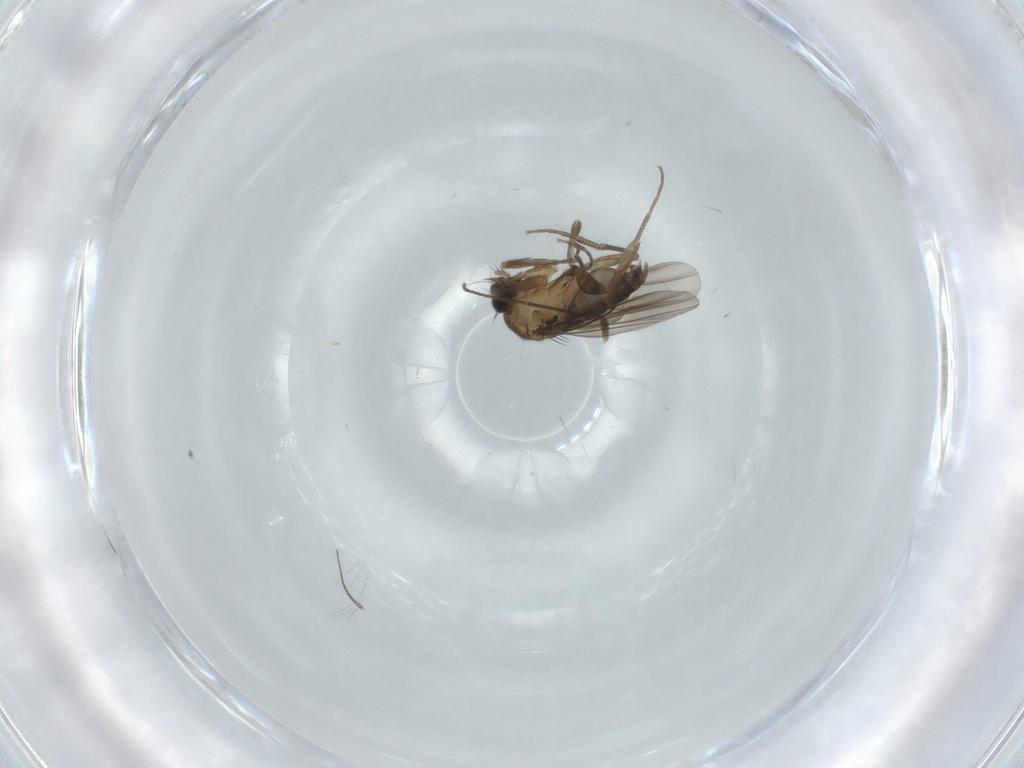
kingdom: Animalia
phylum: Arthropoda
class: Insecta
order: Diptera
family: Phoridae
